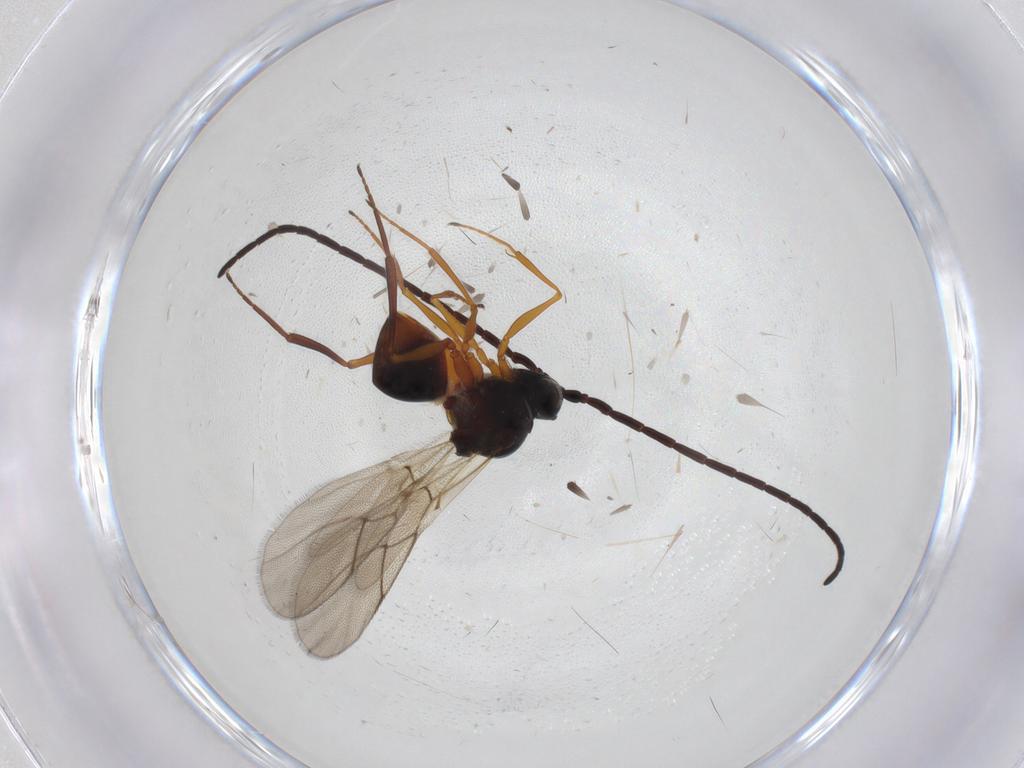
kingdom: Animalia
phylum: Arthropoda
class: Insecta
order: Hymenoptera
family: Figitidae
